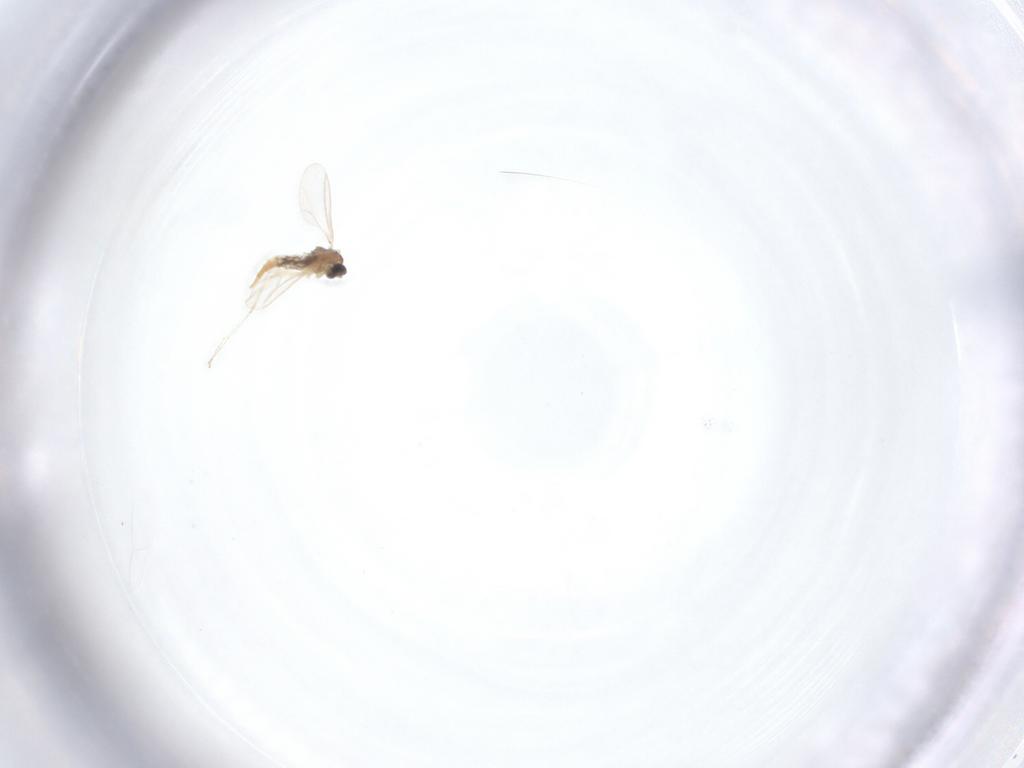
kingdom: Animalia
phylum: Arthropoda
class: Insecta
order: Diptera
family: Cecidomyiidae
